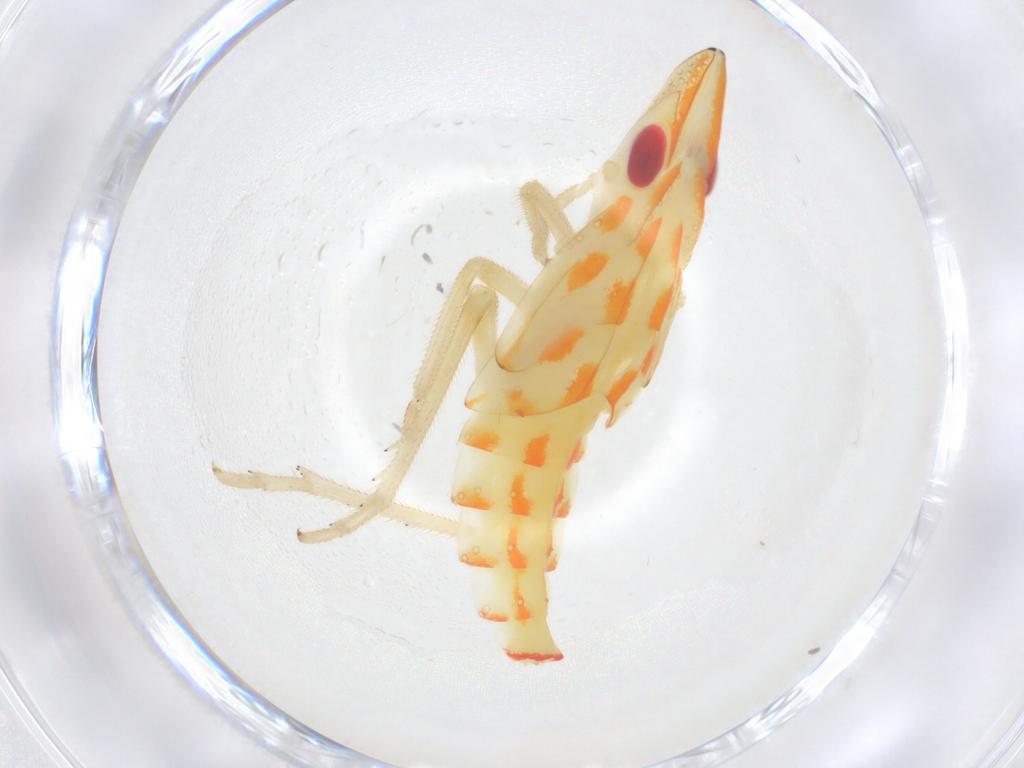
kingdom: Animalia
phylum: Arthropoda
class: Insecta
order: Hemiptera
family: Tropiduchidae
